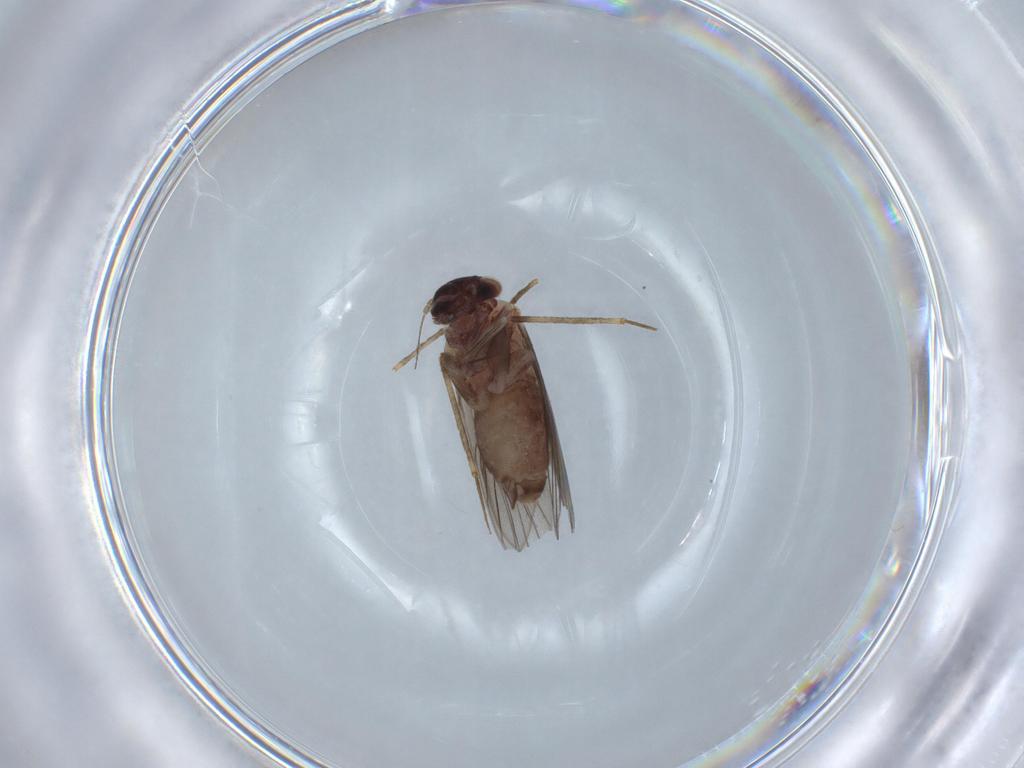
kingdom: Animalia
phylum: Arthropoda
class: Insecta
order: Psocodea
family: Lepidopsocidae
